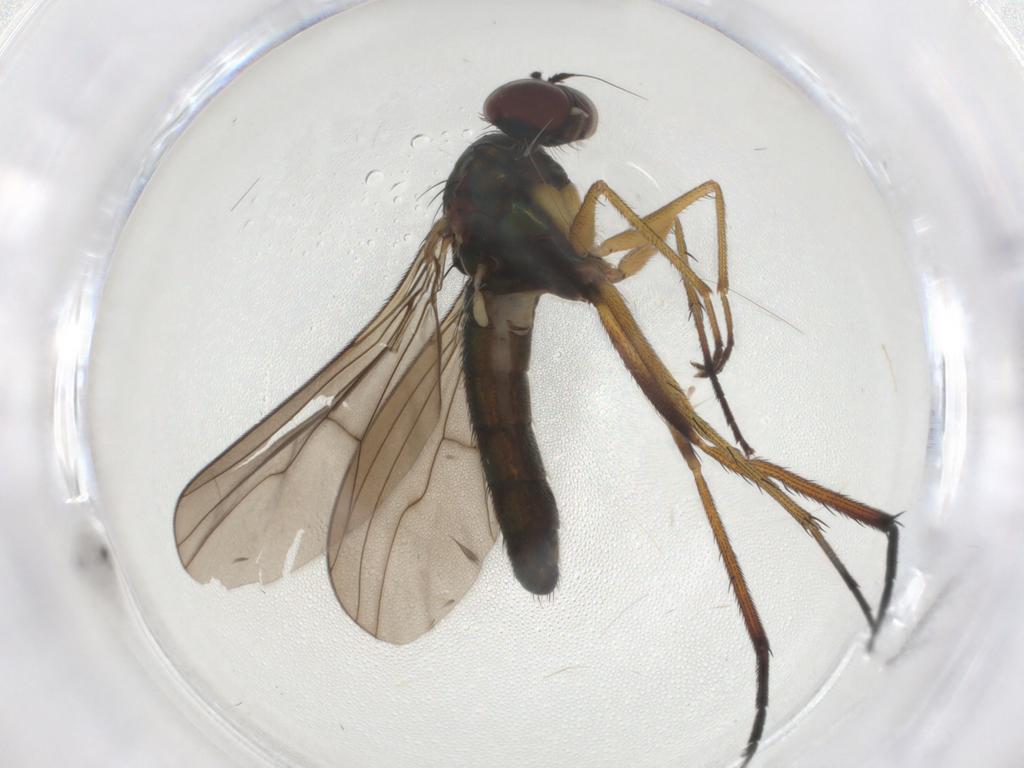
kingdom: Animalia
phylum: Arthropoda
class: Insecta
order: Diptera
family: Dolichopodidae
